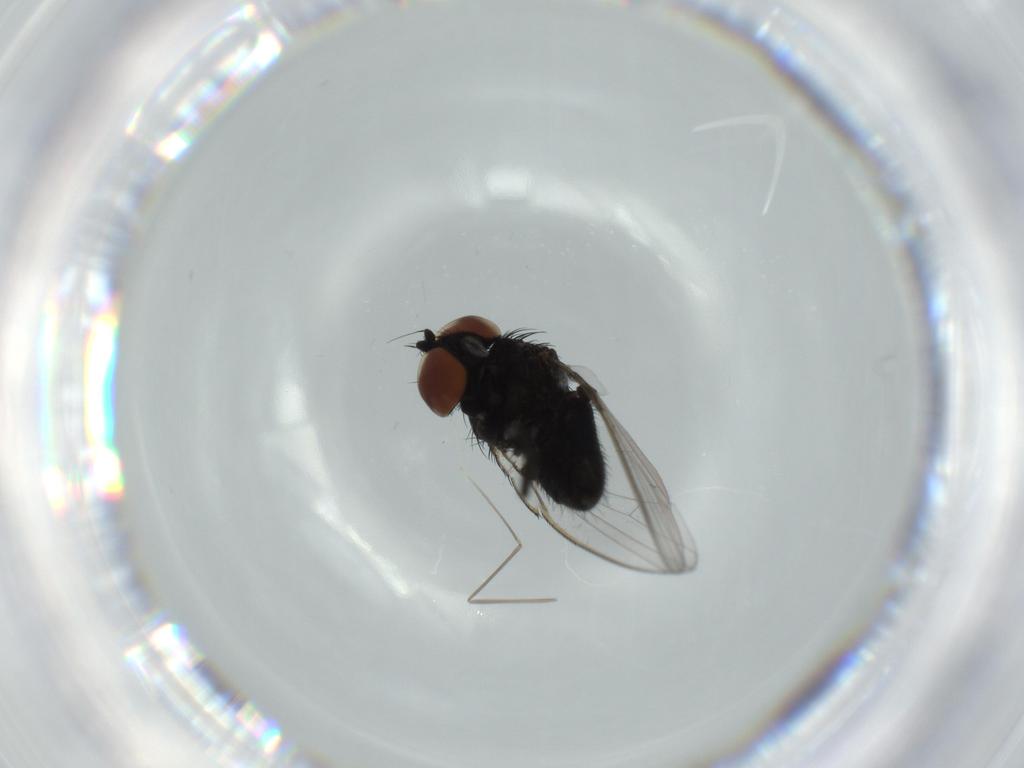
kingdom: Animalia
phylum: Arthropoda
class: Insecta
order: Diptera
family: Milichiidae
